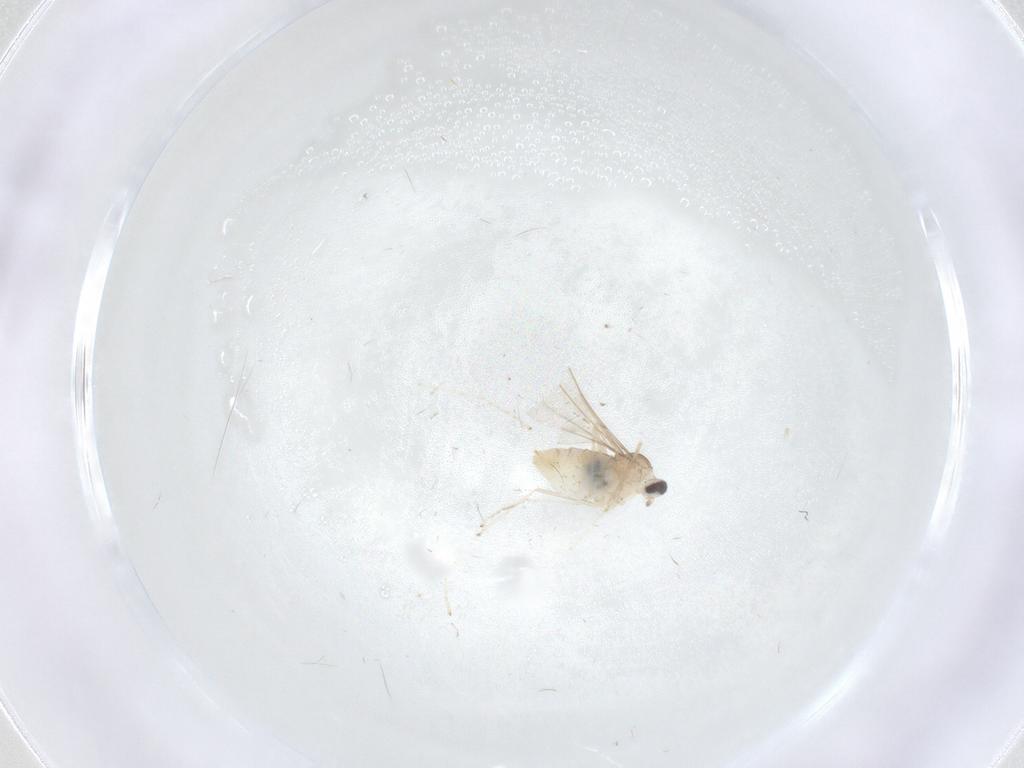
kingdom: Animalia
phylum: Arthropoda
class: Insecta
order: Diptera
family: Cecidomyiidae
